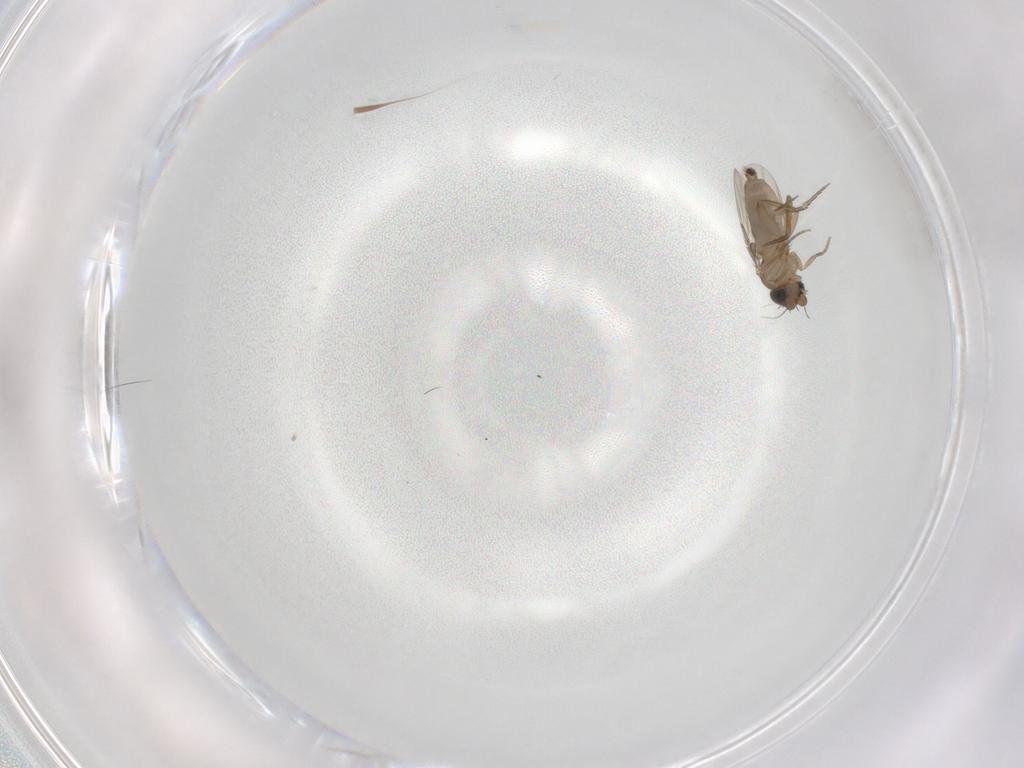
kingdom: Animalia
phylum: Arthropoda
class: Insecta
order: Diptera
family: Phoridae
